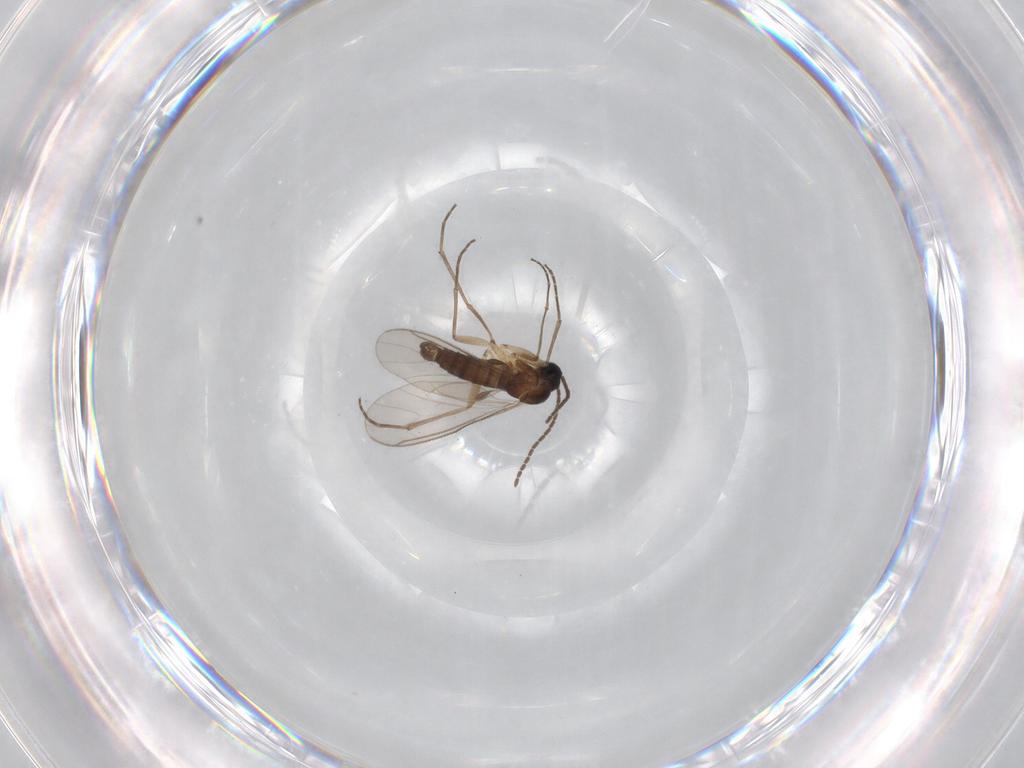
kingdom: Animalia
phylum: Arthropoda
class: Insecta
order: Diptera
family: Sciaridae
